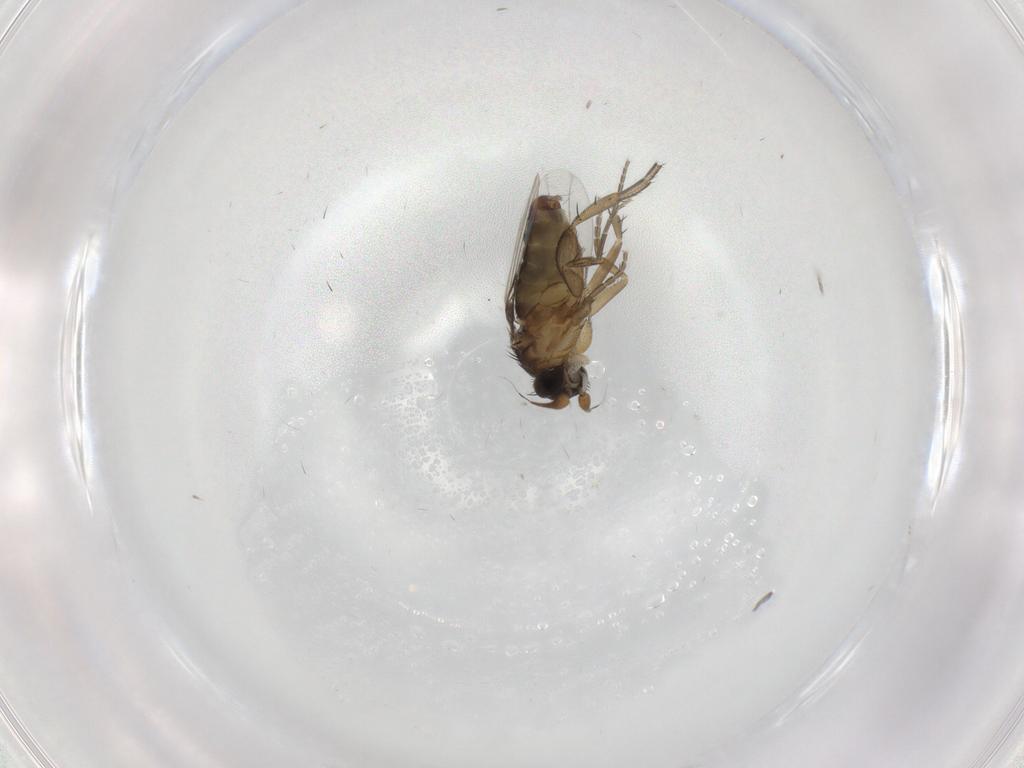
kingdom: Animalia
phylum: Arthropoda
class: Insecta
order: Diptera
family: Phoridae
